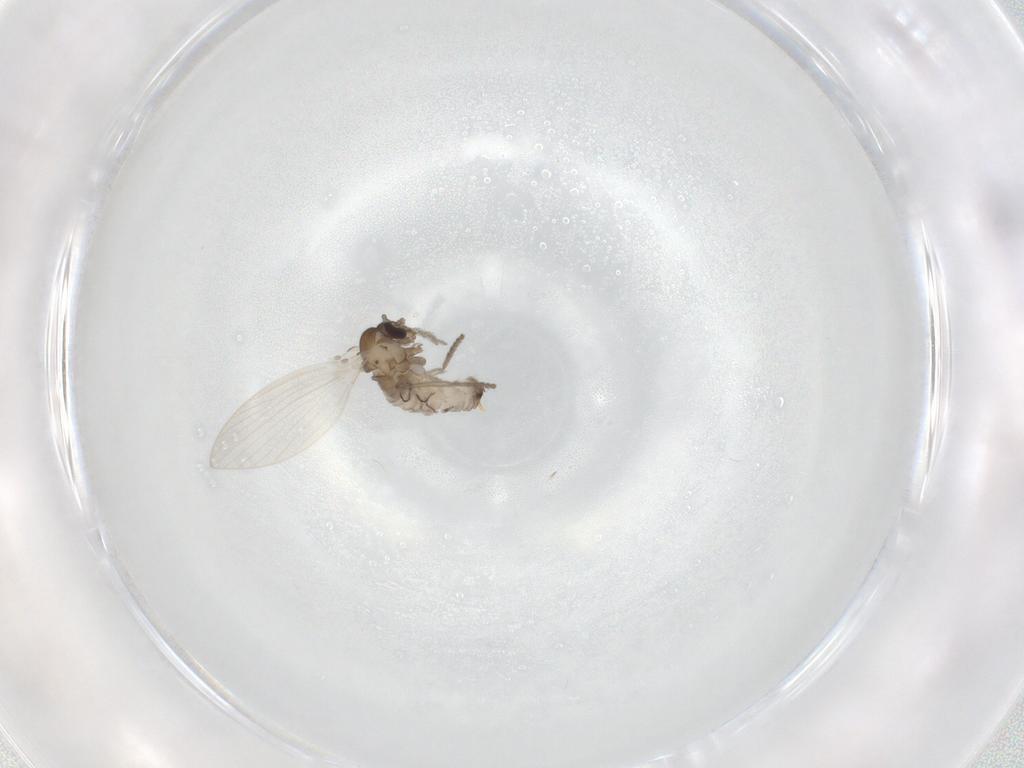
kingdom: Animalia
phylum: Arthropoda
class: Insecta
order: Diptera
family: Psychodidae
